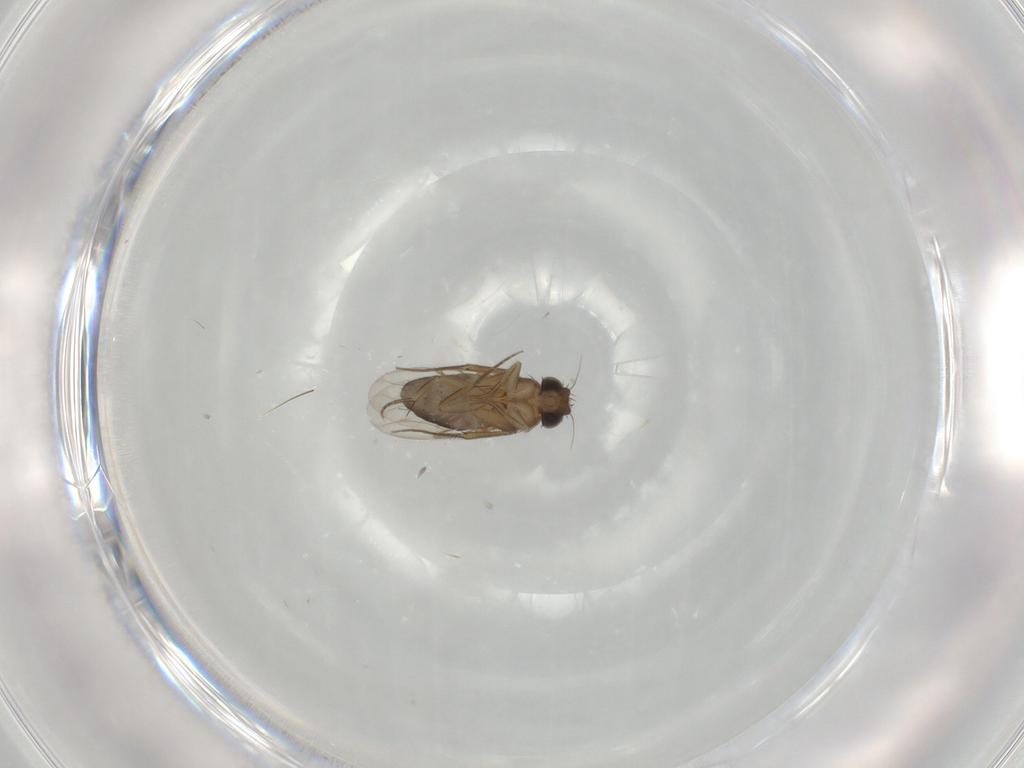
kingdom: Animalia
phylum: Arthropoda
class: Insecta
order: Diptera
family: Phoridae
